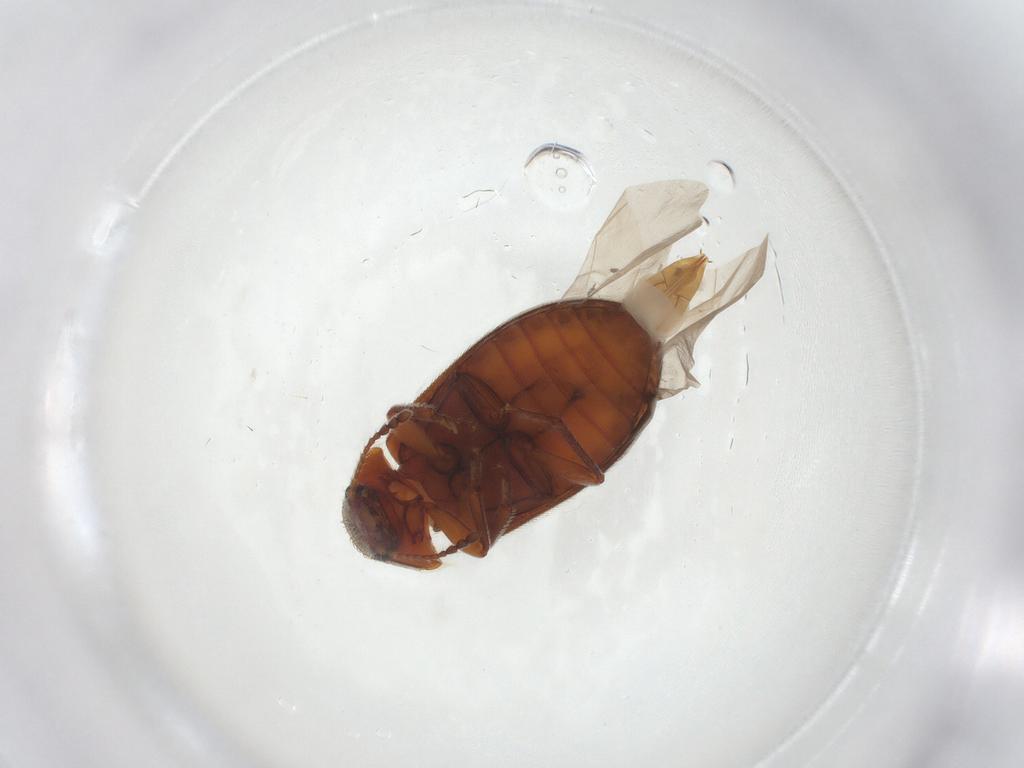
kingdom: Animalia
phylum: Arthropoda
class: Insecta
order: Coleoptera
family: Byturidae
